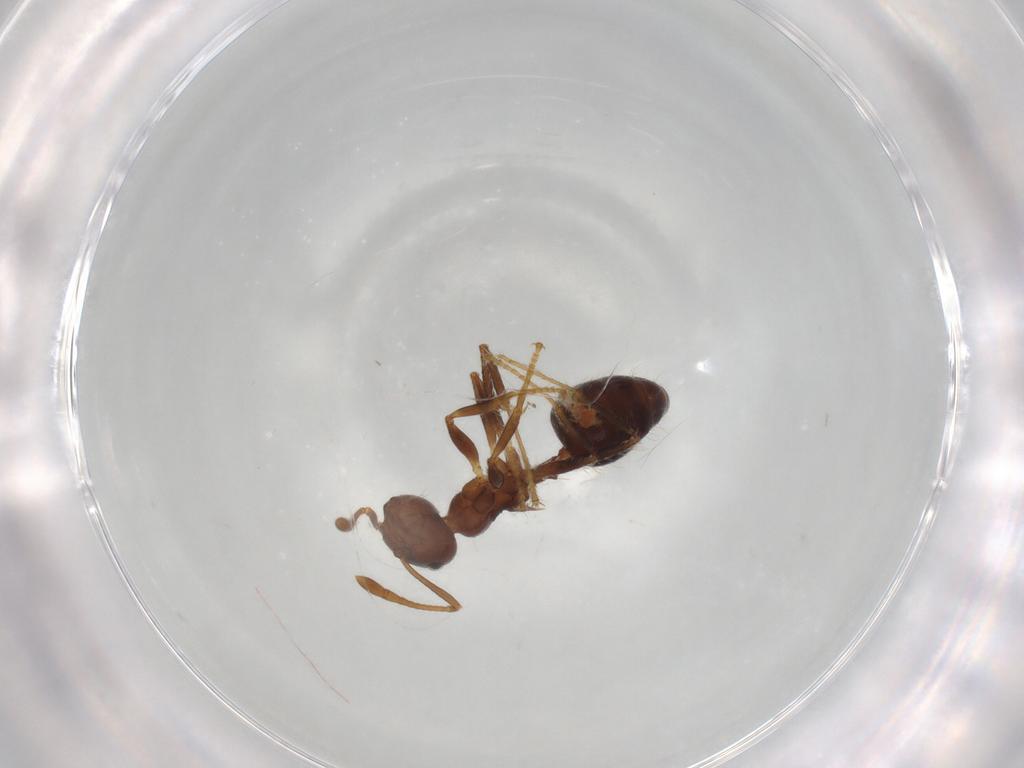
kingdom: Animalia
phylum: Arthropoda
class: Insecta
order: Hymenoptera
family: Formicidae
